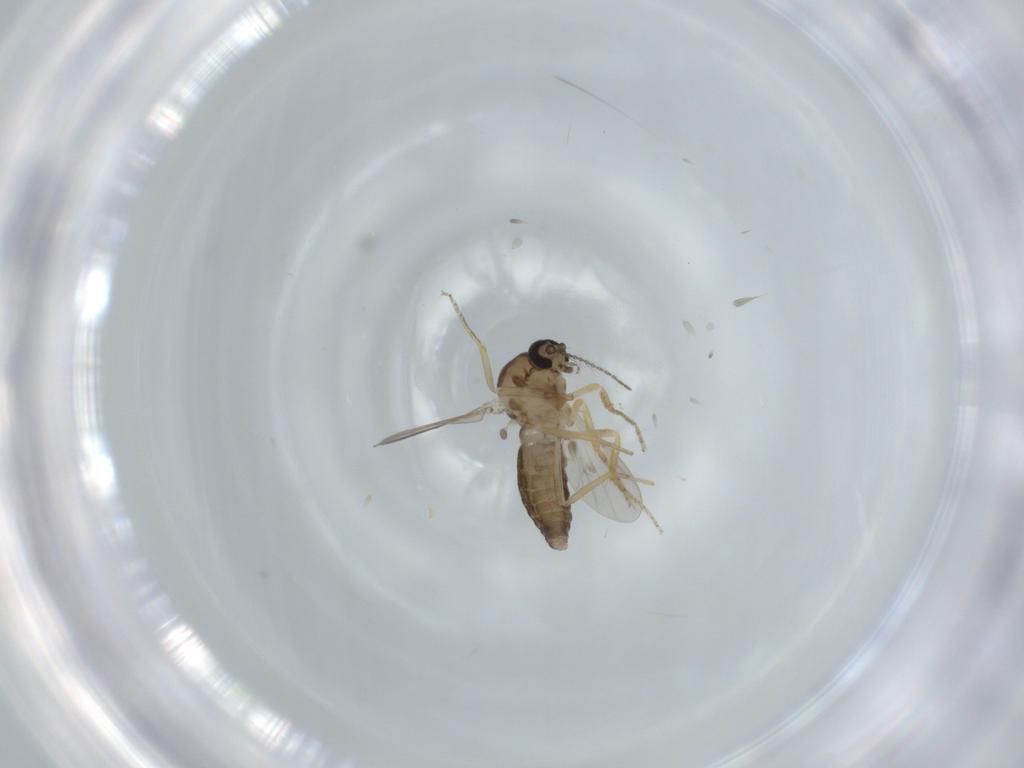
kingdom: Animalia
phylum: Arthropoda
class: Insecta
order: Diptera
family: Ceratopogonidae
